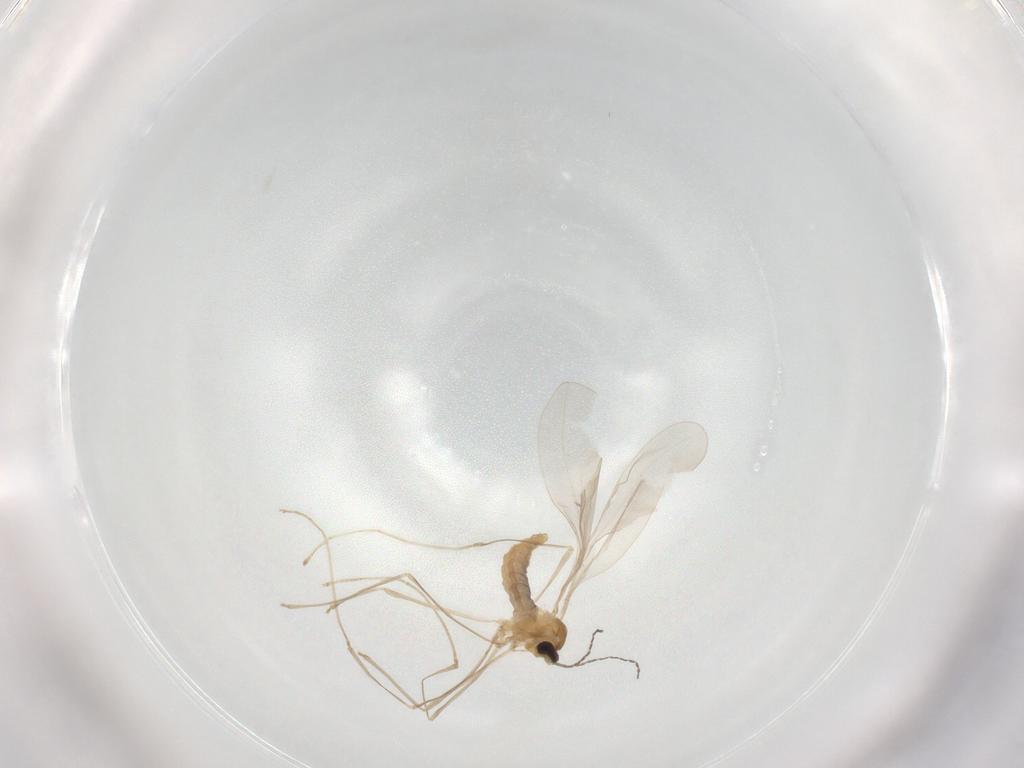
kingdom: Animalia
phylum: Arthropoda
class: Insecta
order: Diptera
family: Cecidomyiidae
